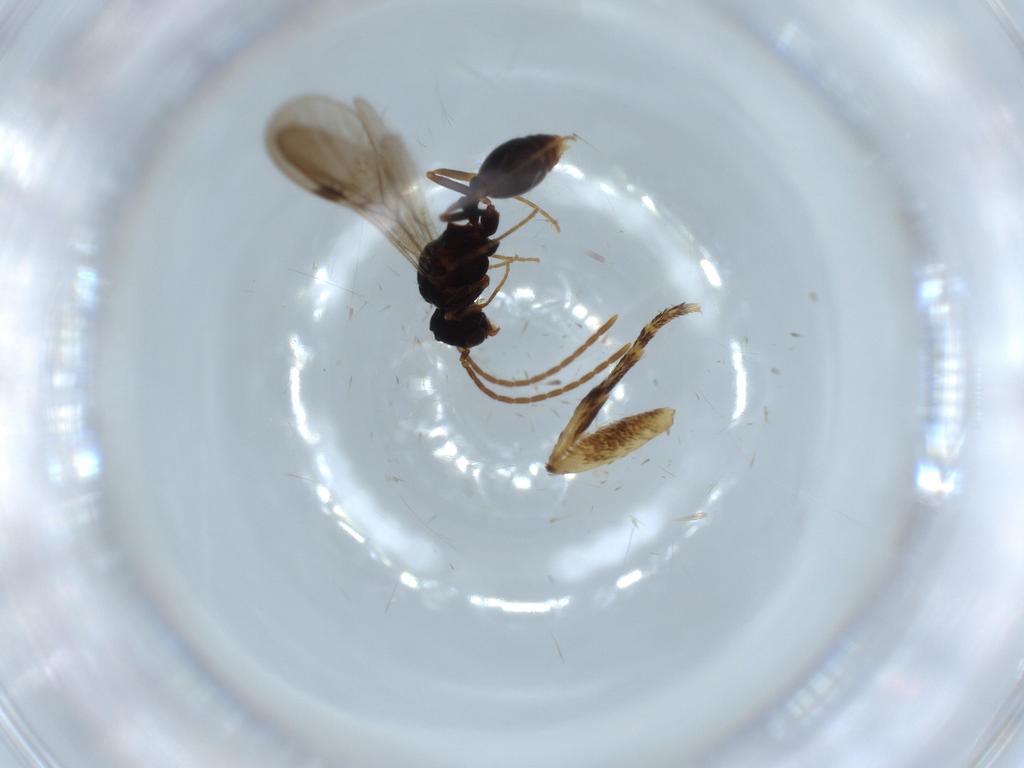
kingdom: Animalia
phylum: Arthropoda
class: Insecta
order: Hymenoptera
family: Formicidae
